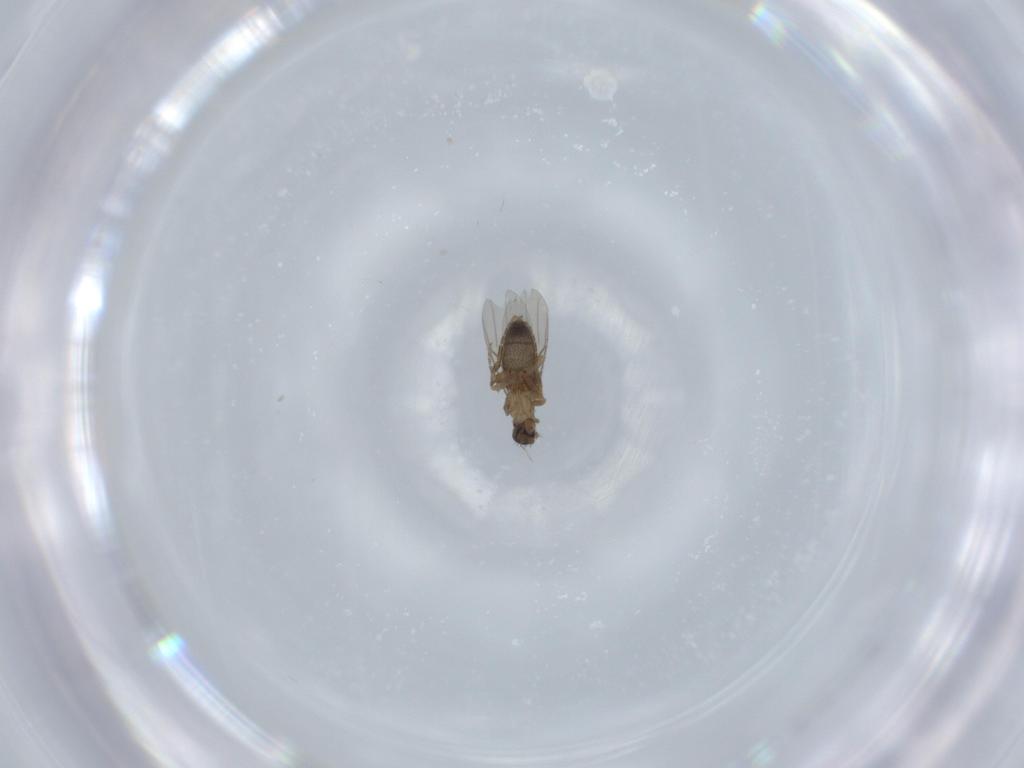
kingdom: Animalia
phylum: Arthropoda
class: Insecta
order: Diptera
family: Phoridae
